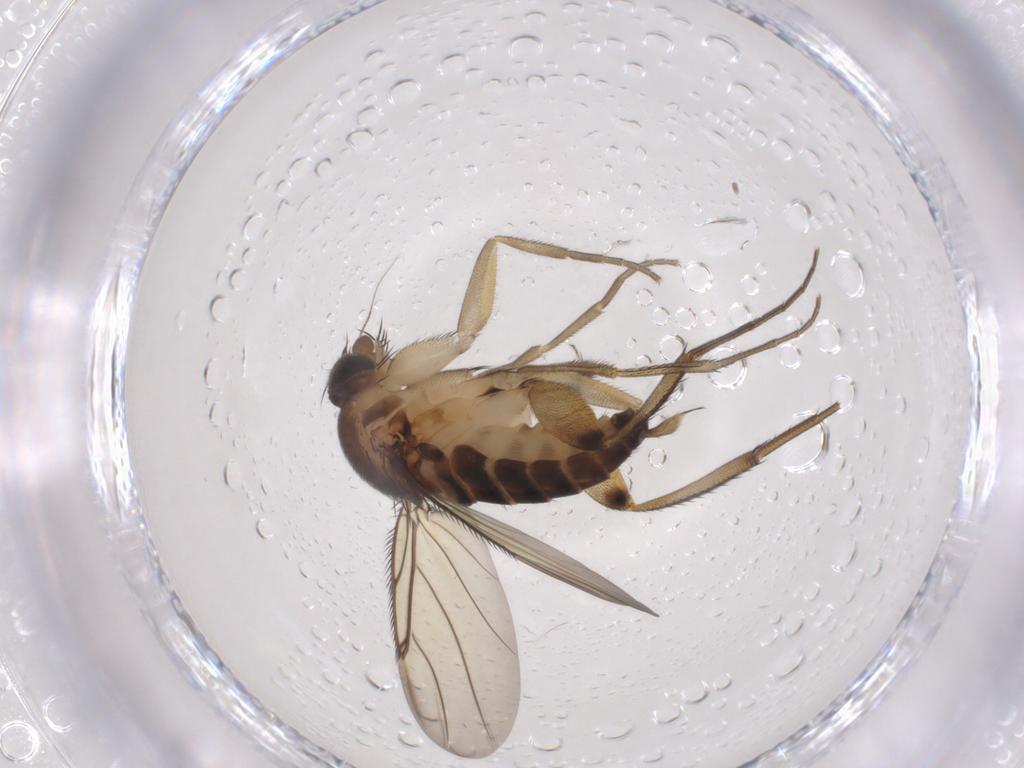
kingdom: Animalia
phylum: Arthropoda
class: Insecta
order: Diptera
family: Phoridae
